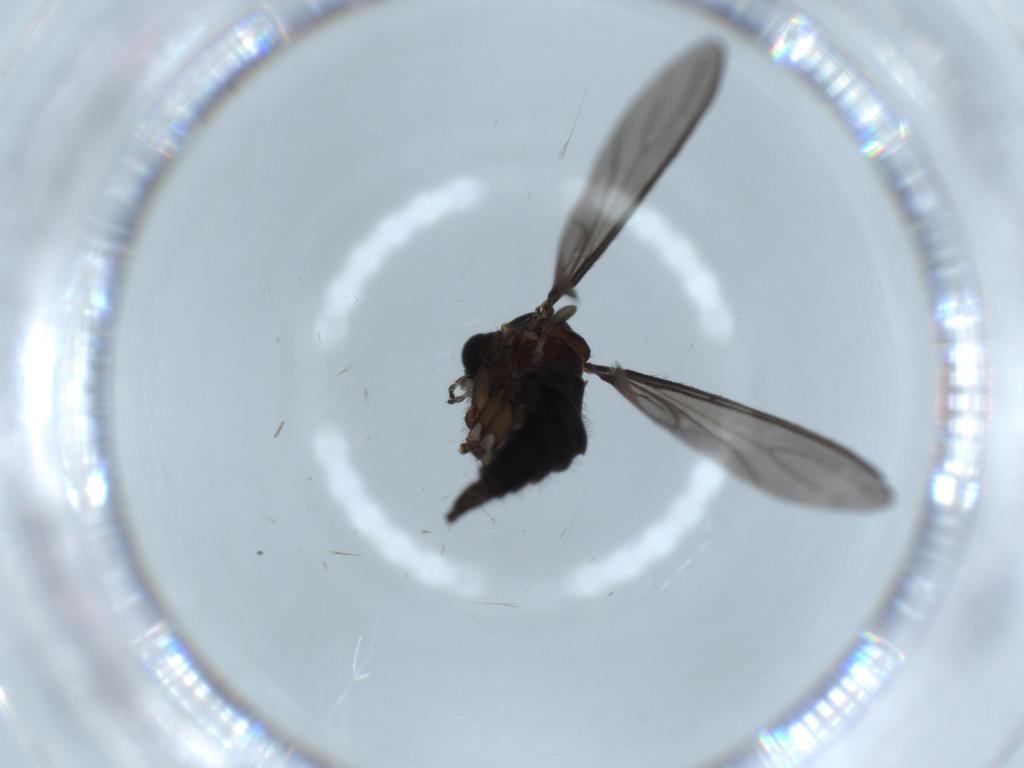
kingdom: Animalia
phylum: Arthropoda
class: Insecta
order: Diptera
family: Sciaridae
